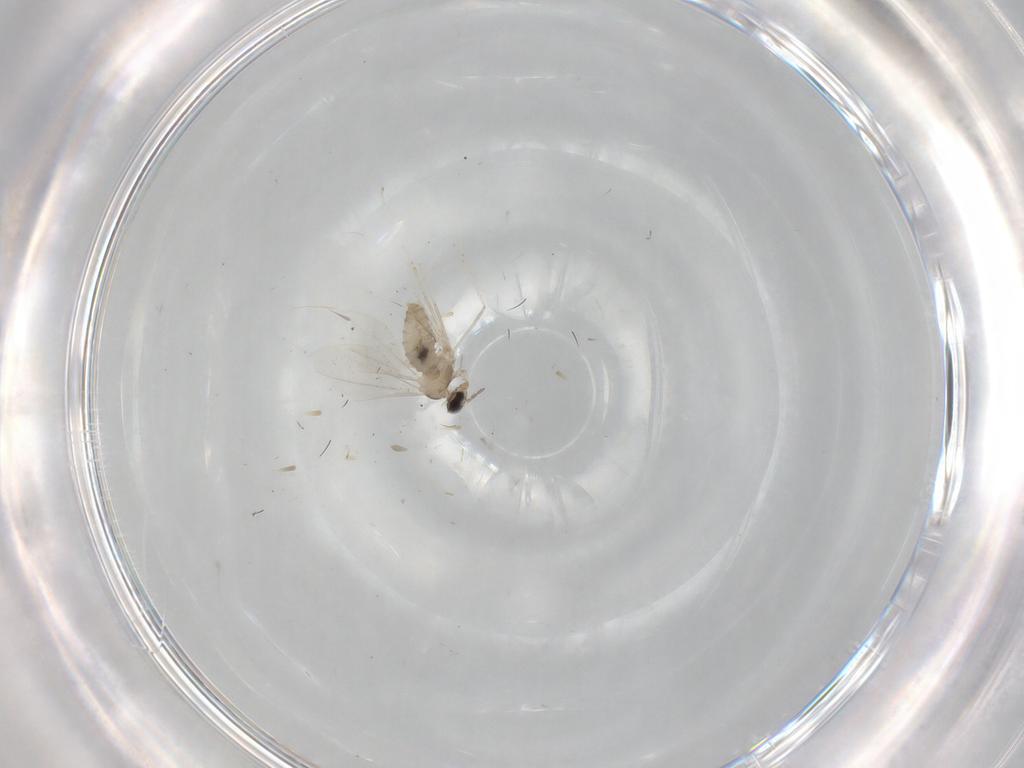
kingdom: Animalia
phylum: Arthropoda
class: Insecta
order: Diptera
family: Cecidomyiidae
